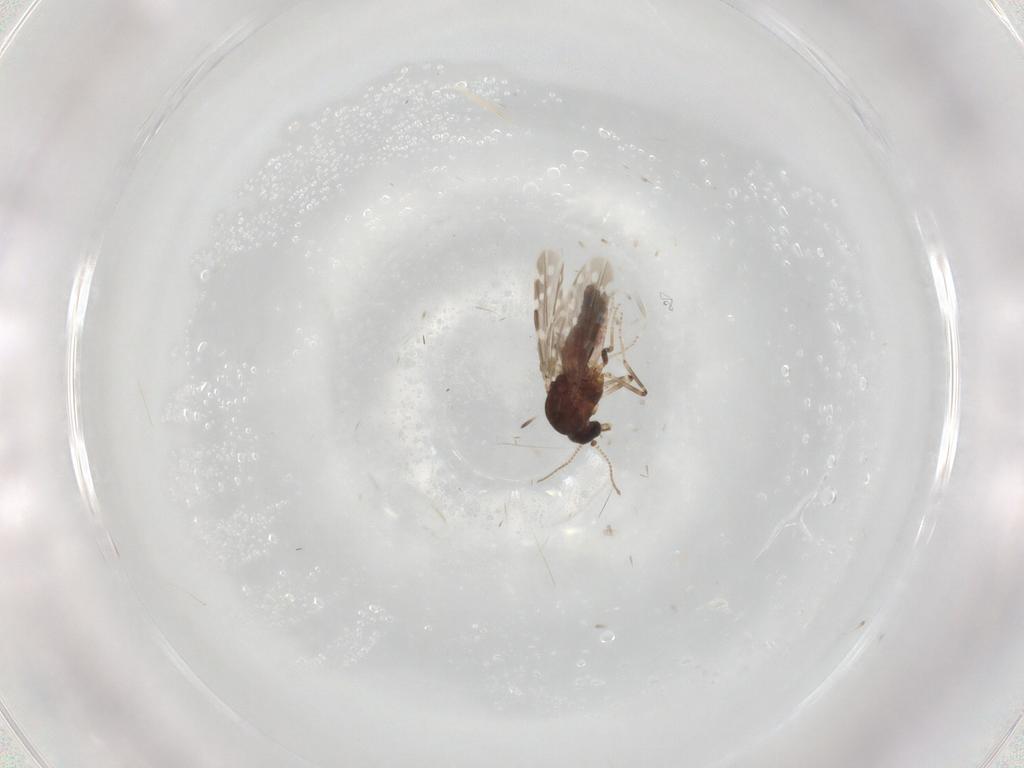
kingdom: Animalia
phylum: Arthropoda
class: Insecta
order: Diptera
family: Ceratopogonidae
